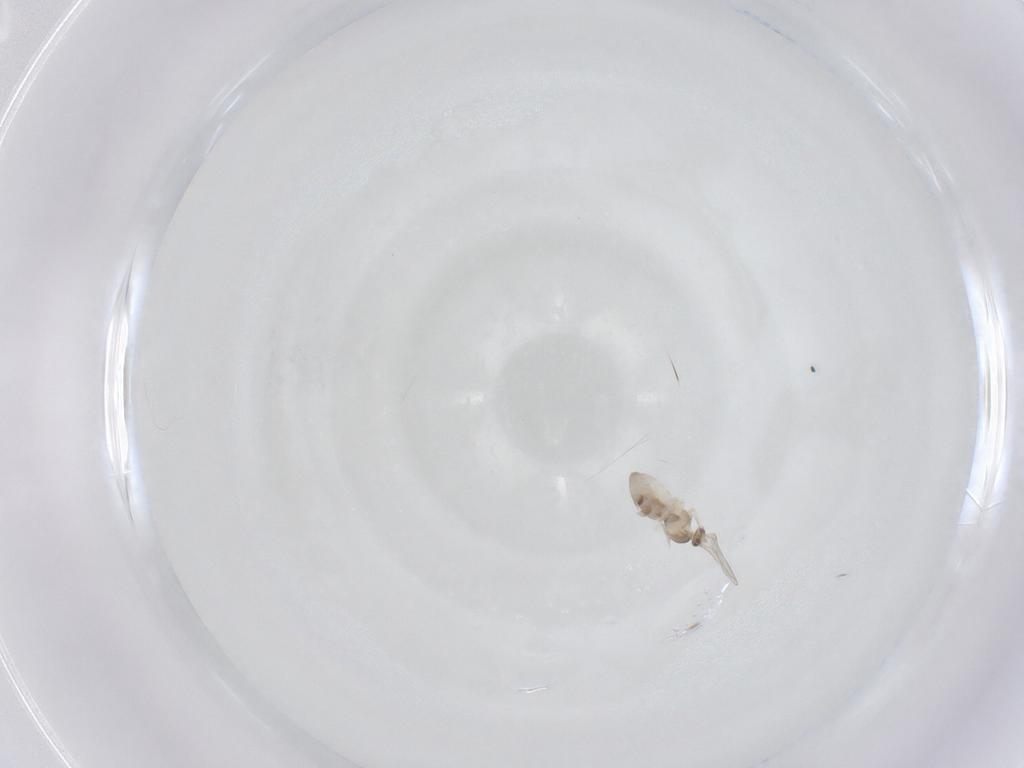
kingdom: Animalia
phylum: Arthropoda
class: Insecta
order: Diptera
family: Cecidomyiidae
